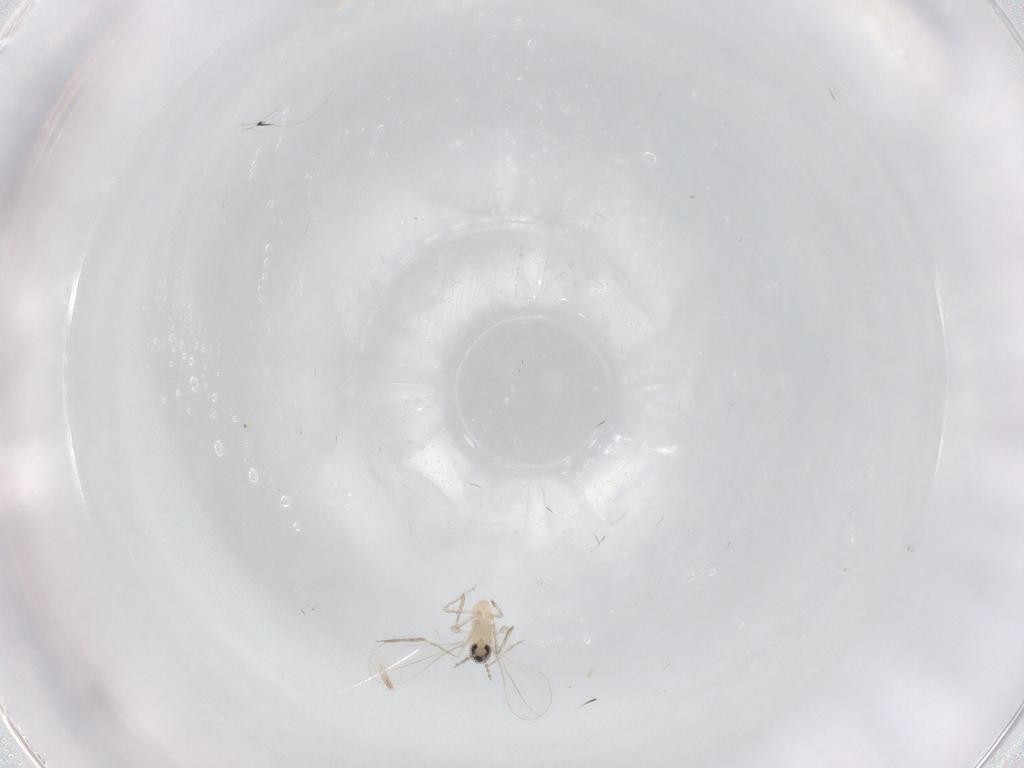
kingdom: Animalia
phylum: Arthropoda
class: Insecta
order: Diptera
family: Cecidomyiidae
